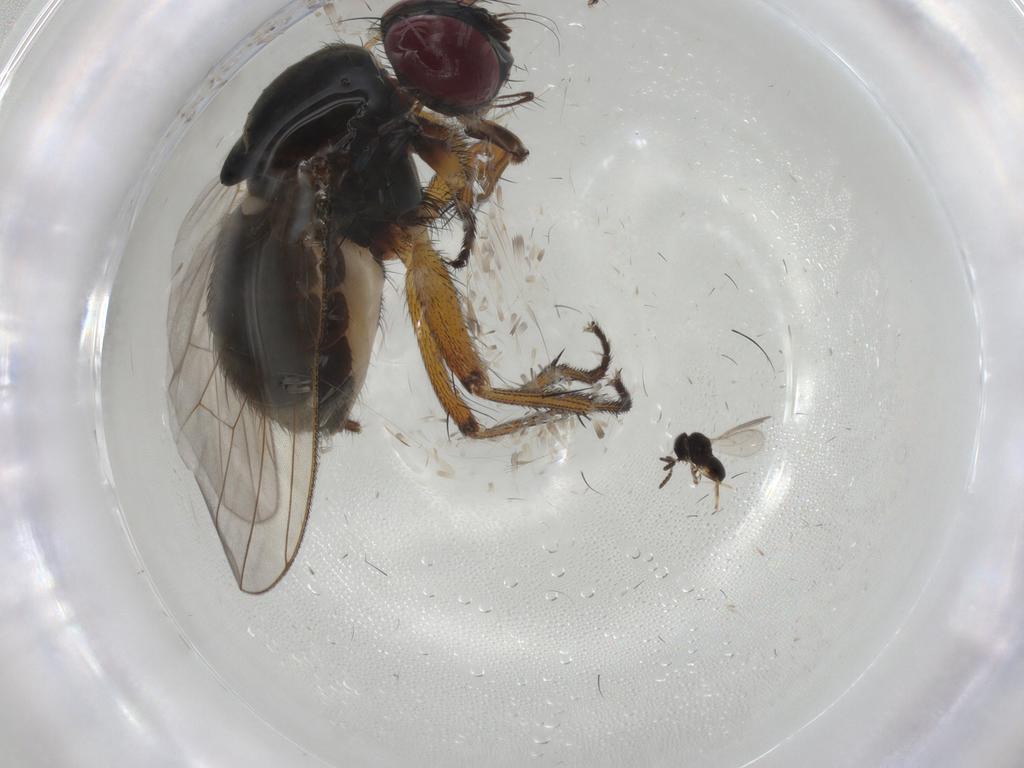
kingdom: Animalia
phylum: Arthropoda
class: Insecta
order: Diptera
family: Muscidae
